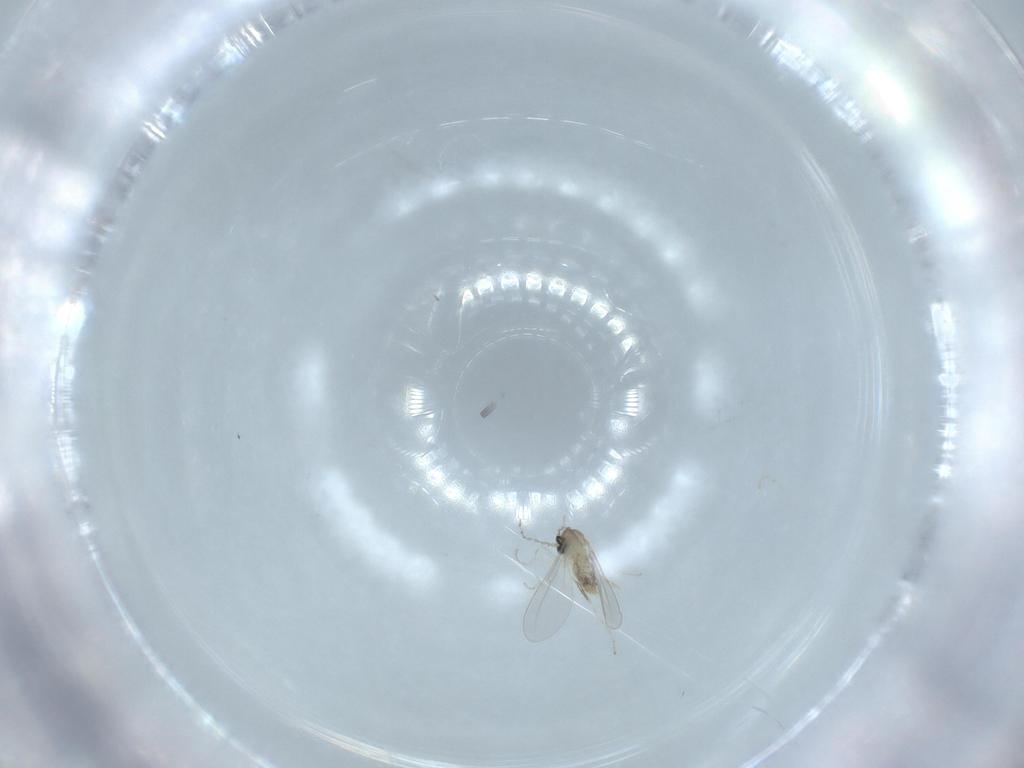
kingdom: Animalia
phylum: Arthropoda
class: Insecta
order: Diptera
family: Cecidomyiidae
